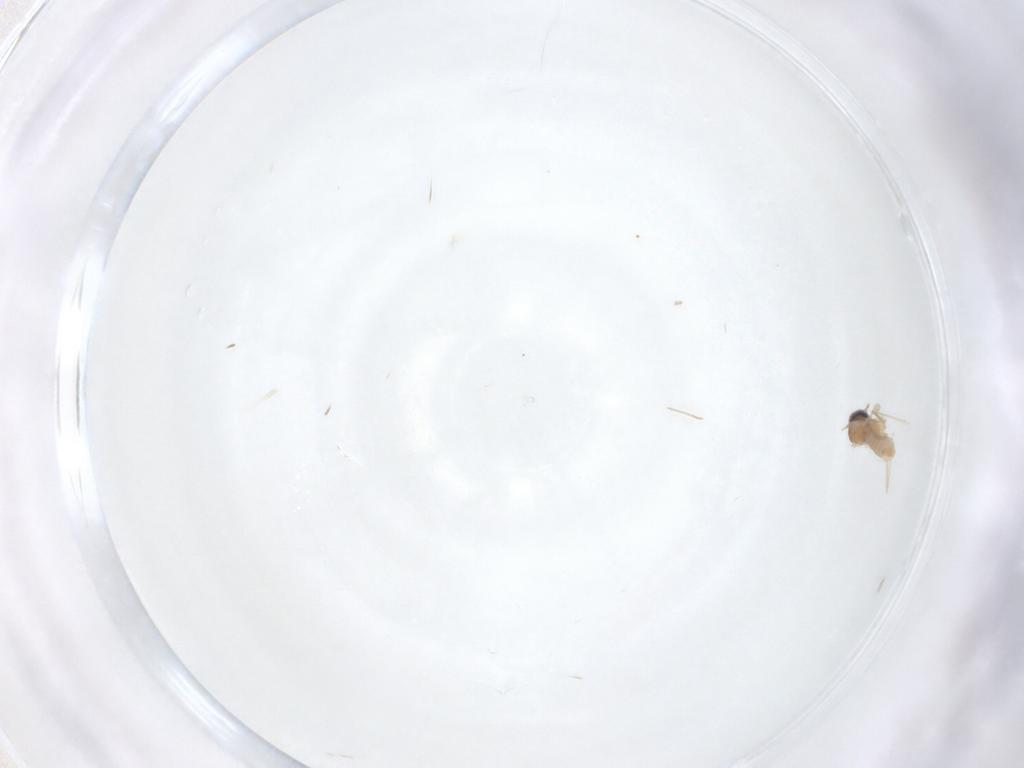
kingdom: Animalia
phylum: Arthropoda
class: Insecta
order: Diptera
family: Cecidomyiidae
